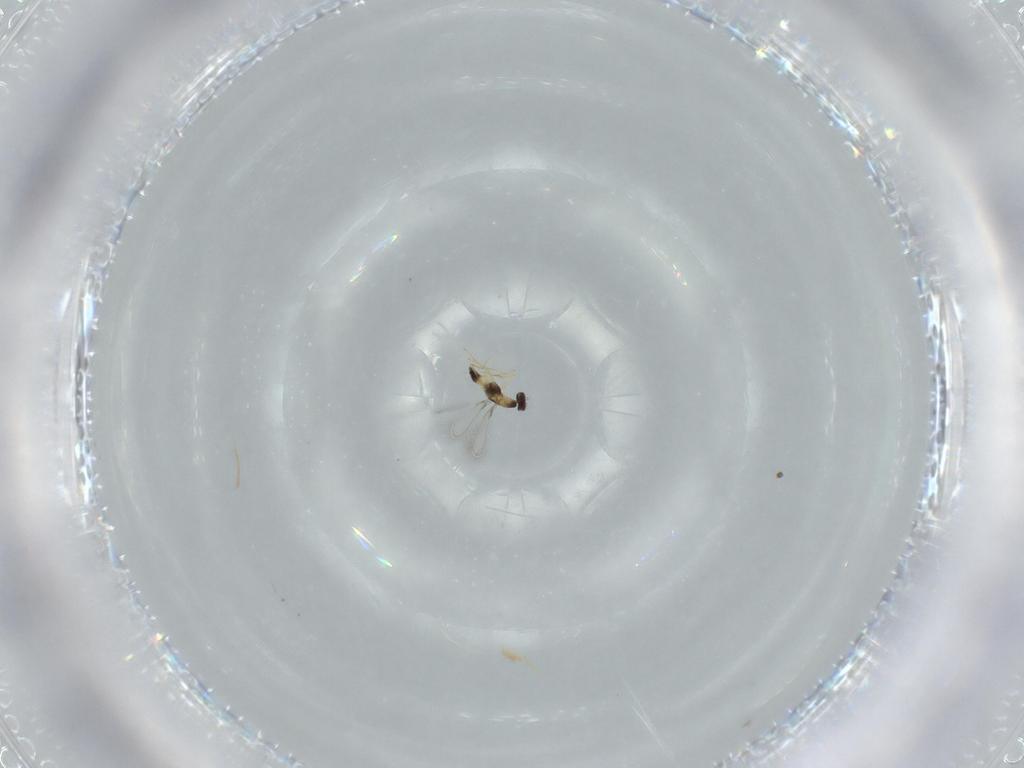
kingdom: Animalia
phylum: Arthropoda
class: Insecta
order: Hymenoptera
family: Mymaridae
